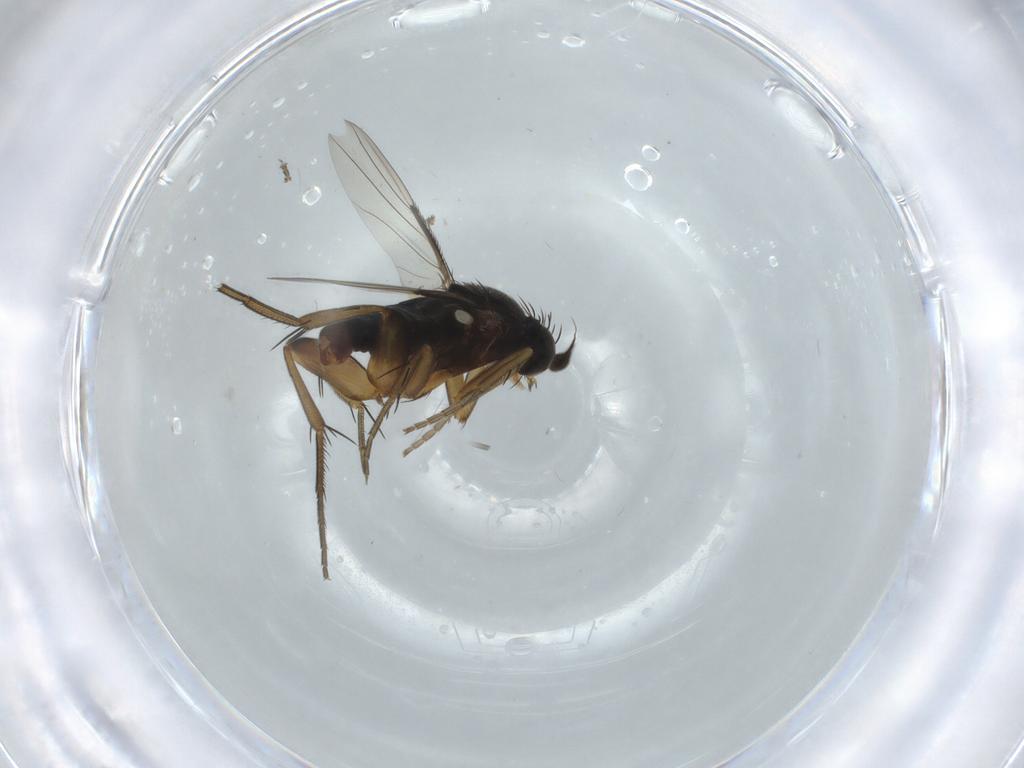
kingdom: Animalia
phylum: Arthropoda
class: Insecta
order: Diptera
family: Phoridae
